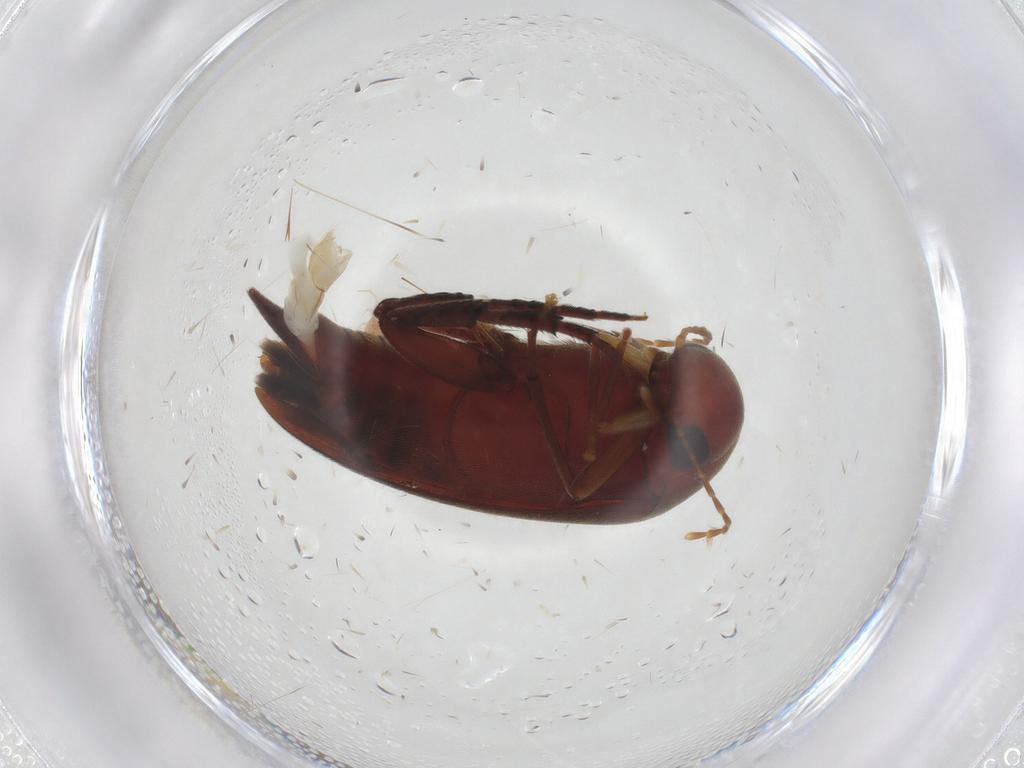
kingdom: Animalia
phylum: Arthropoda
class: Insecta
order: Coleoptera
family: Mordellidae
